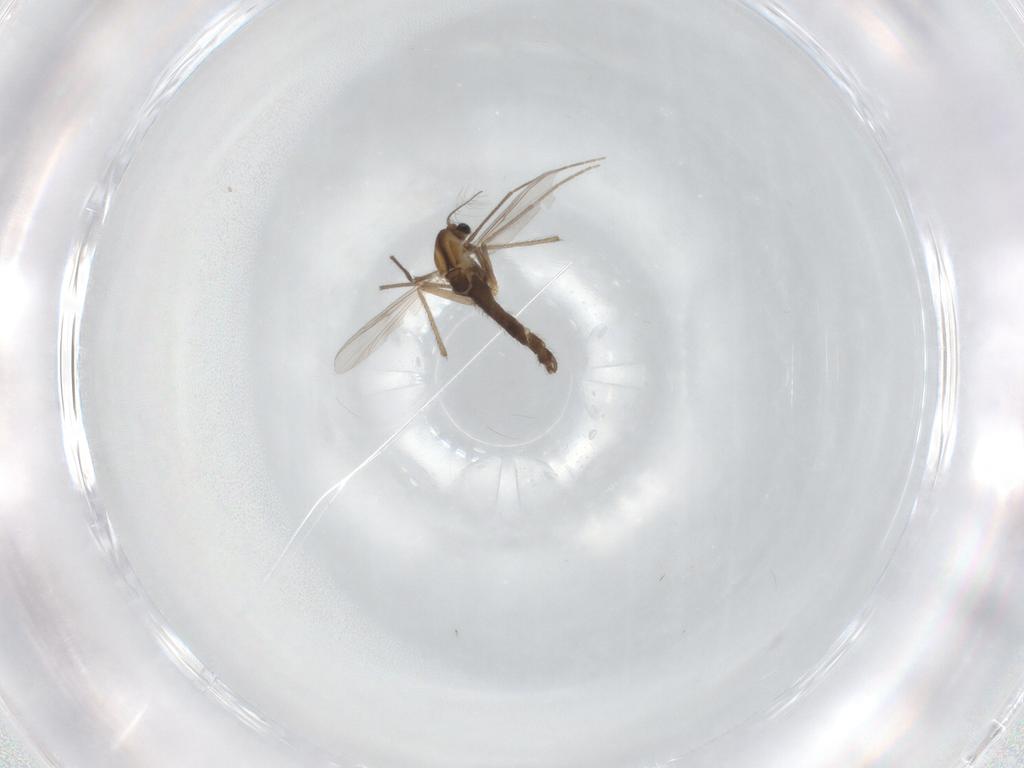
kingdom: Animalia
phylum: Arthropoda
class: Insecta
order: Diptera
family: Chironomidae
